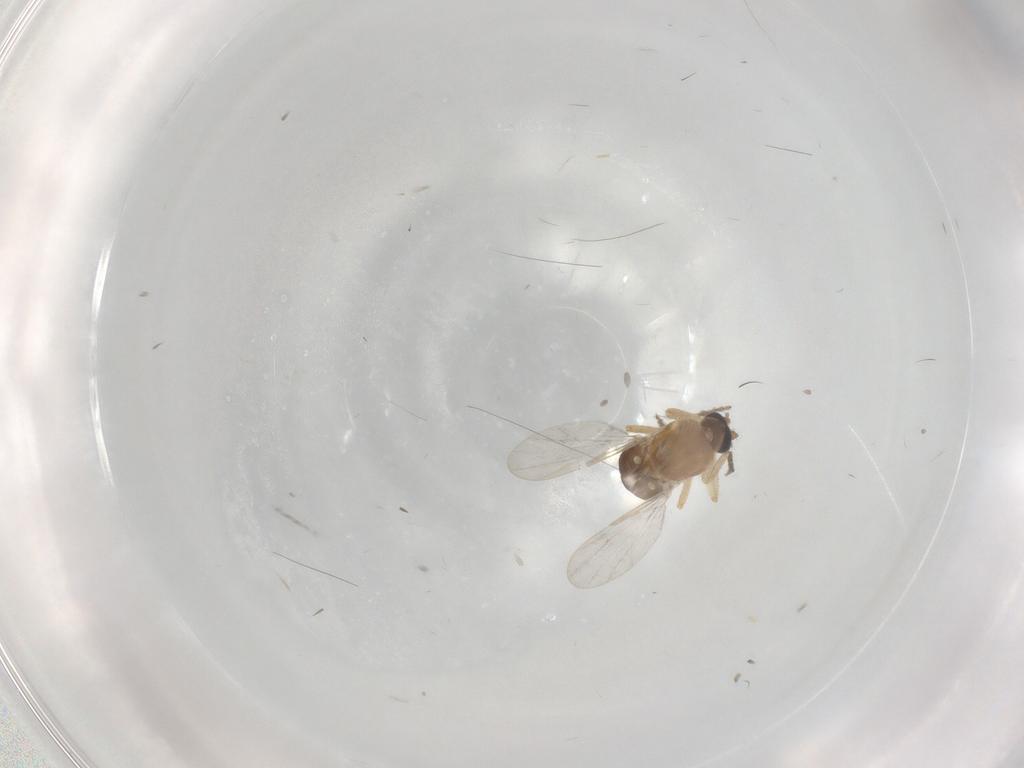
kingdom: Animalia
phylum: Arthropoda
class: Insecta
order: Diptera
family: Ceratopogonidae
